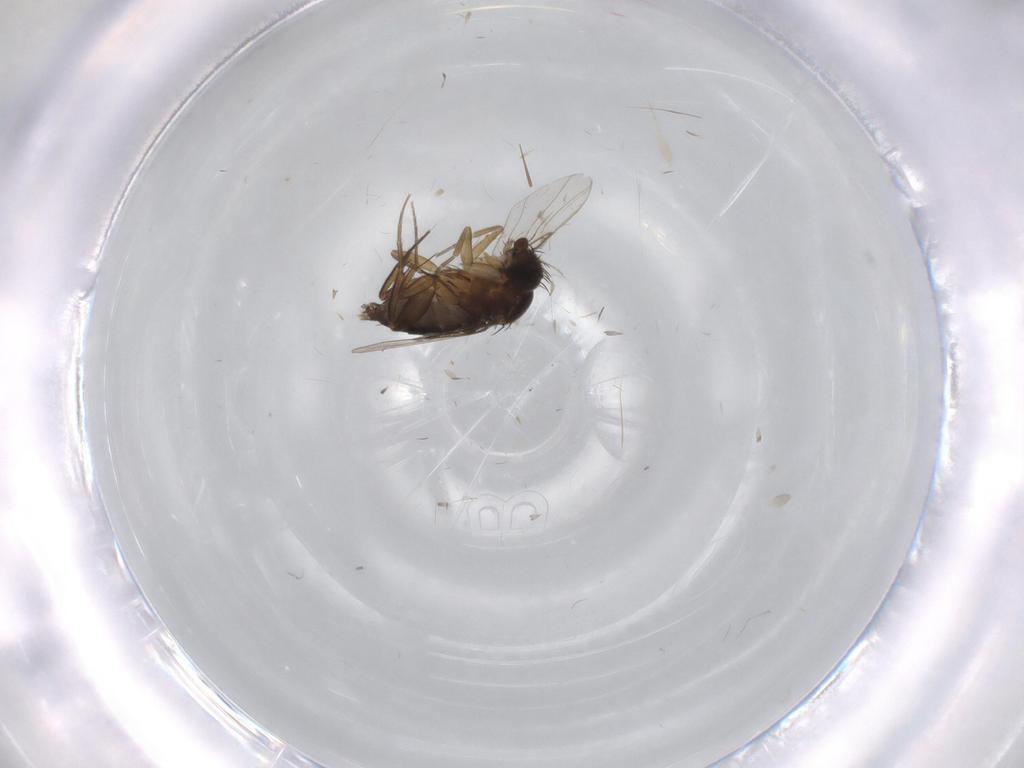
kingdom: Animalia
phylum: Arthropoda
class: Insecta
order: Diptera
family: Phoridae
